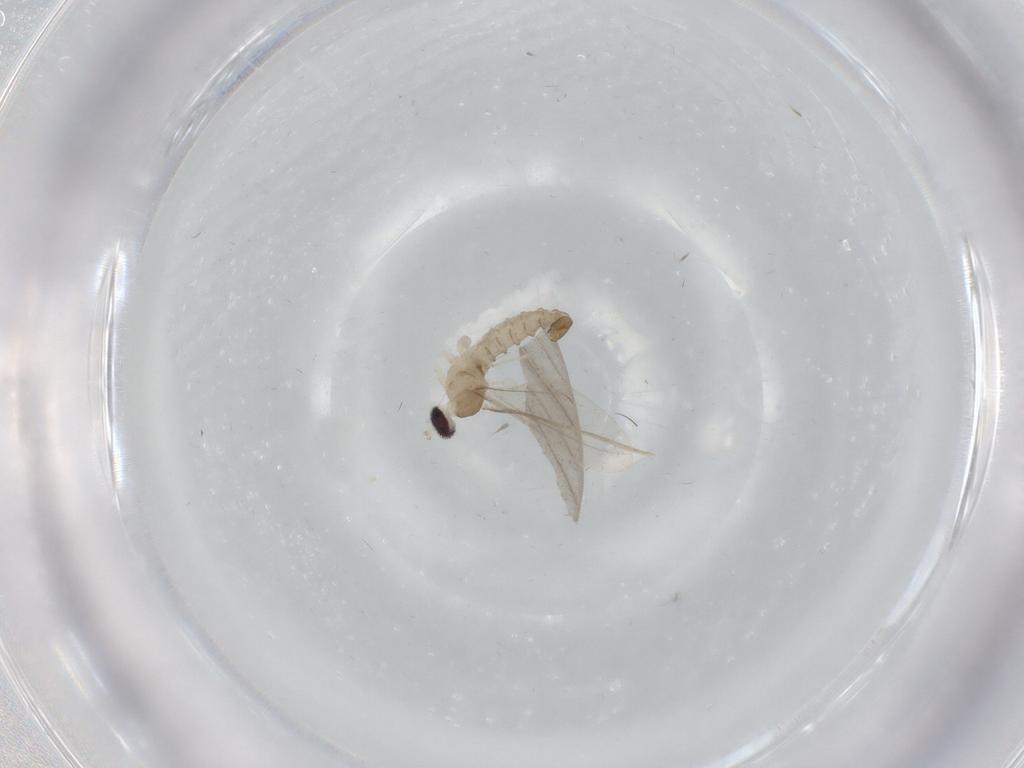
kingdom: Animalia
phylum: Arthropoda
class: Insecta
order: Diptera
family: Cecidomyiidae
